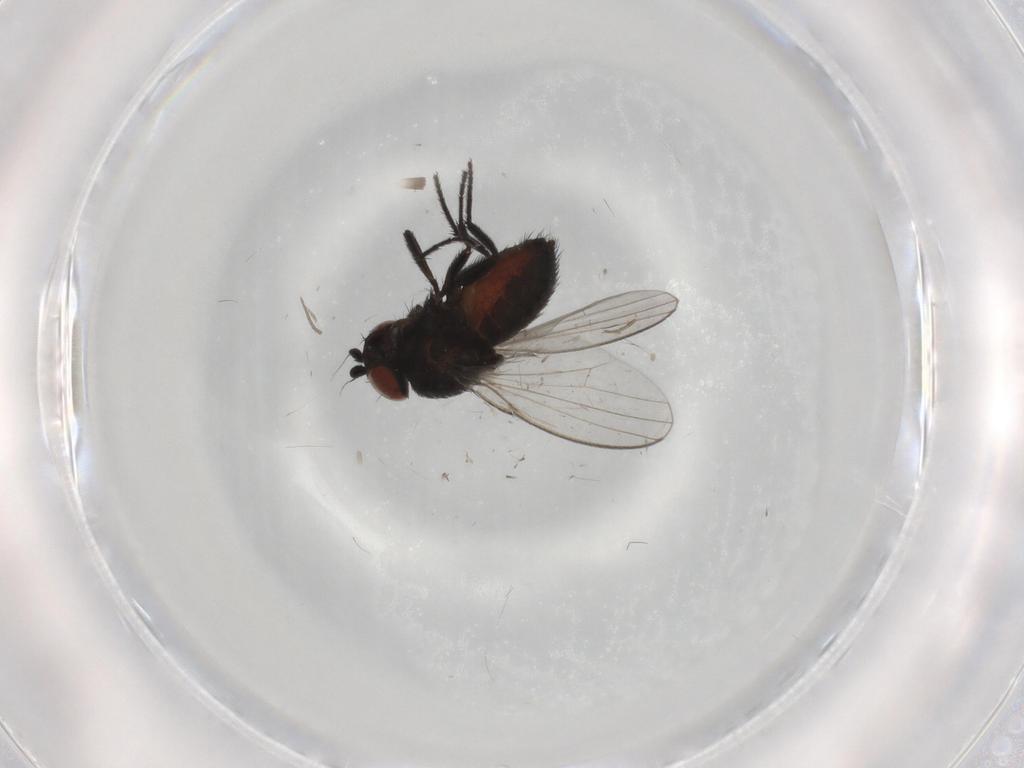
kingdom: Animalia
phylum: Arthropoda
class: Insecta
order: Diptera
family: Milichiidae
